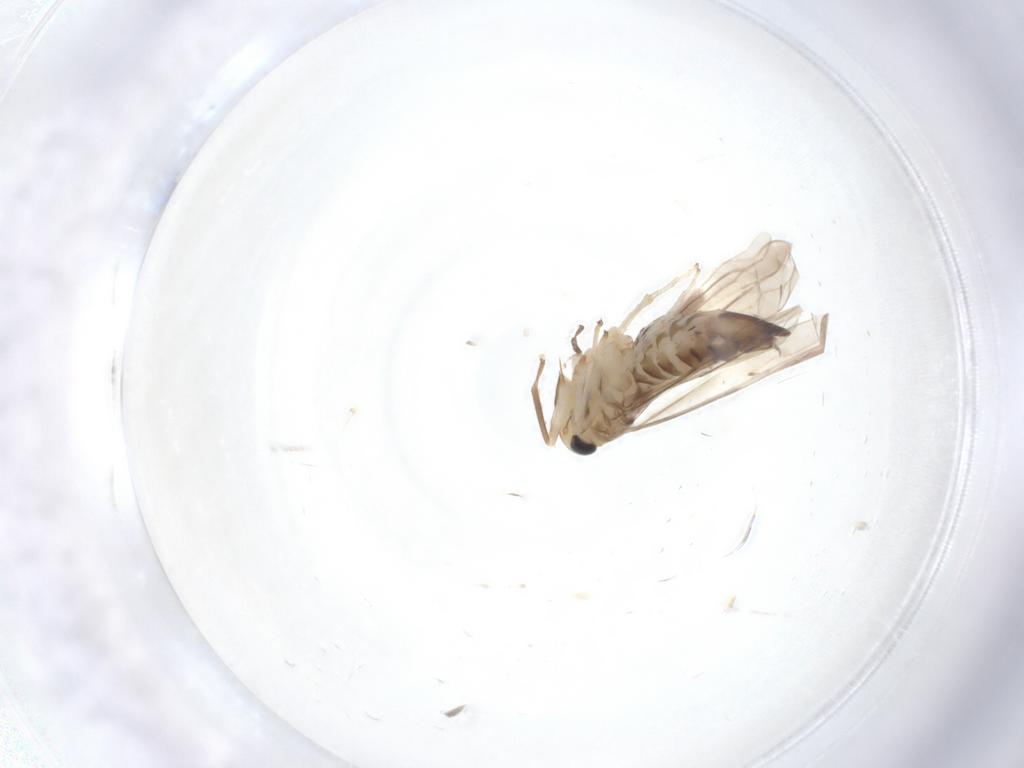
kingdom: Animalia
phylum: Arthropoda
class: Insecta
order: Hemiptera
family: Cicadellidae
